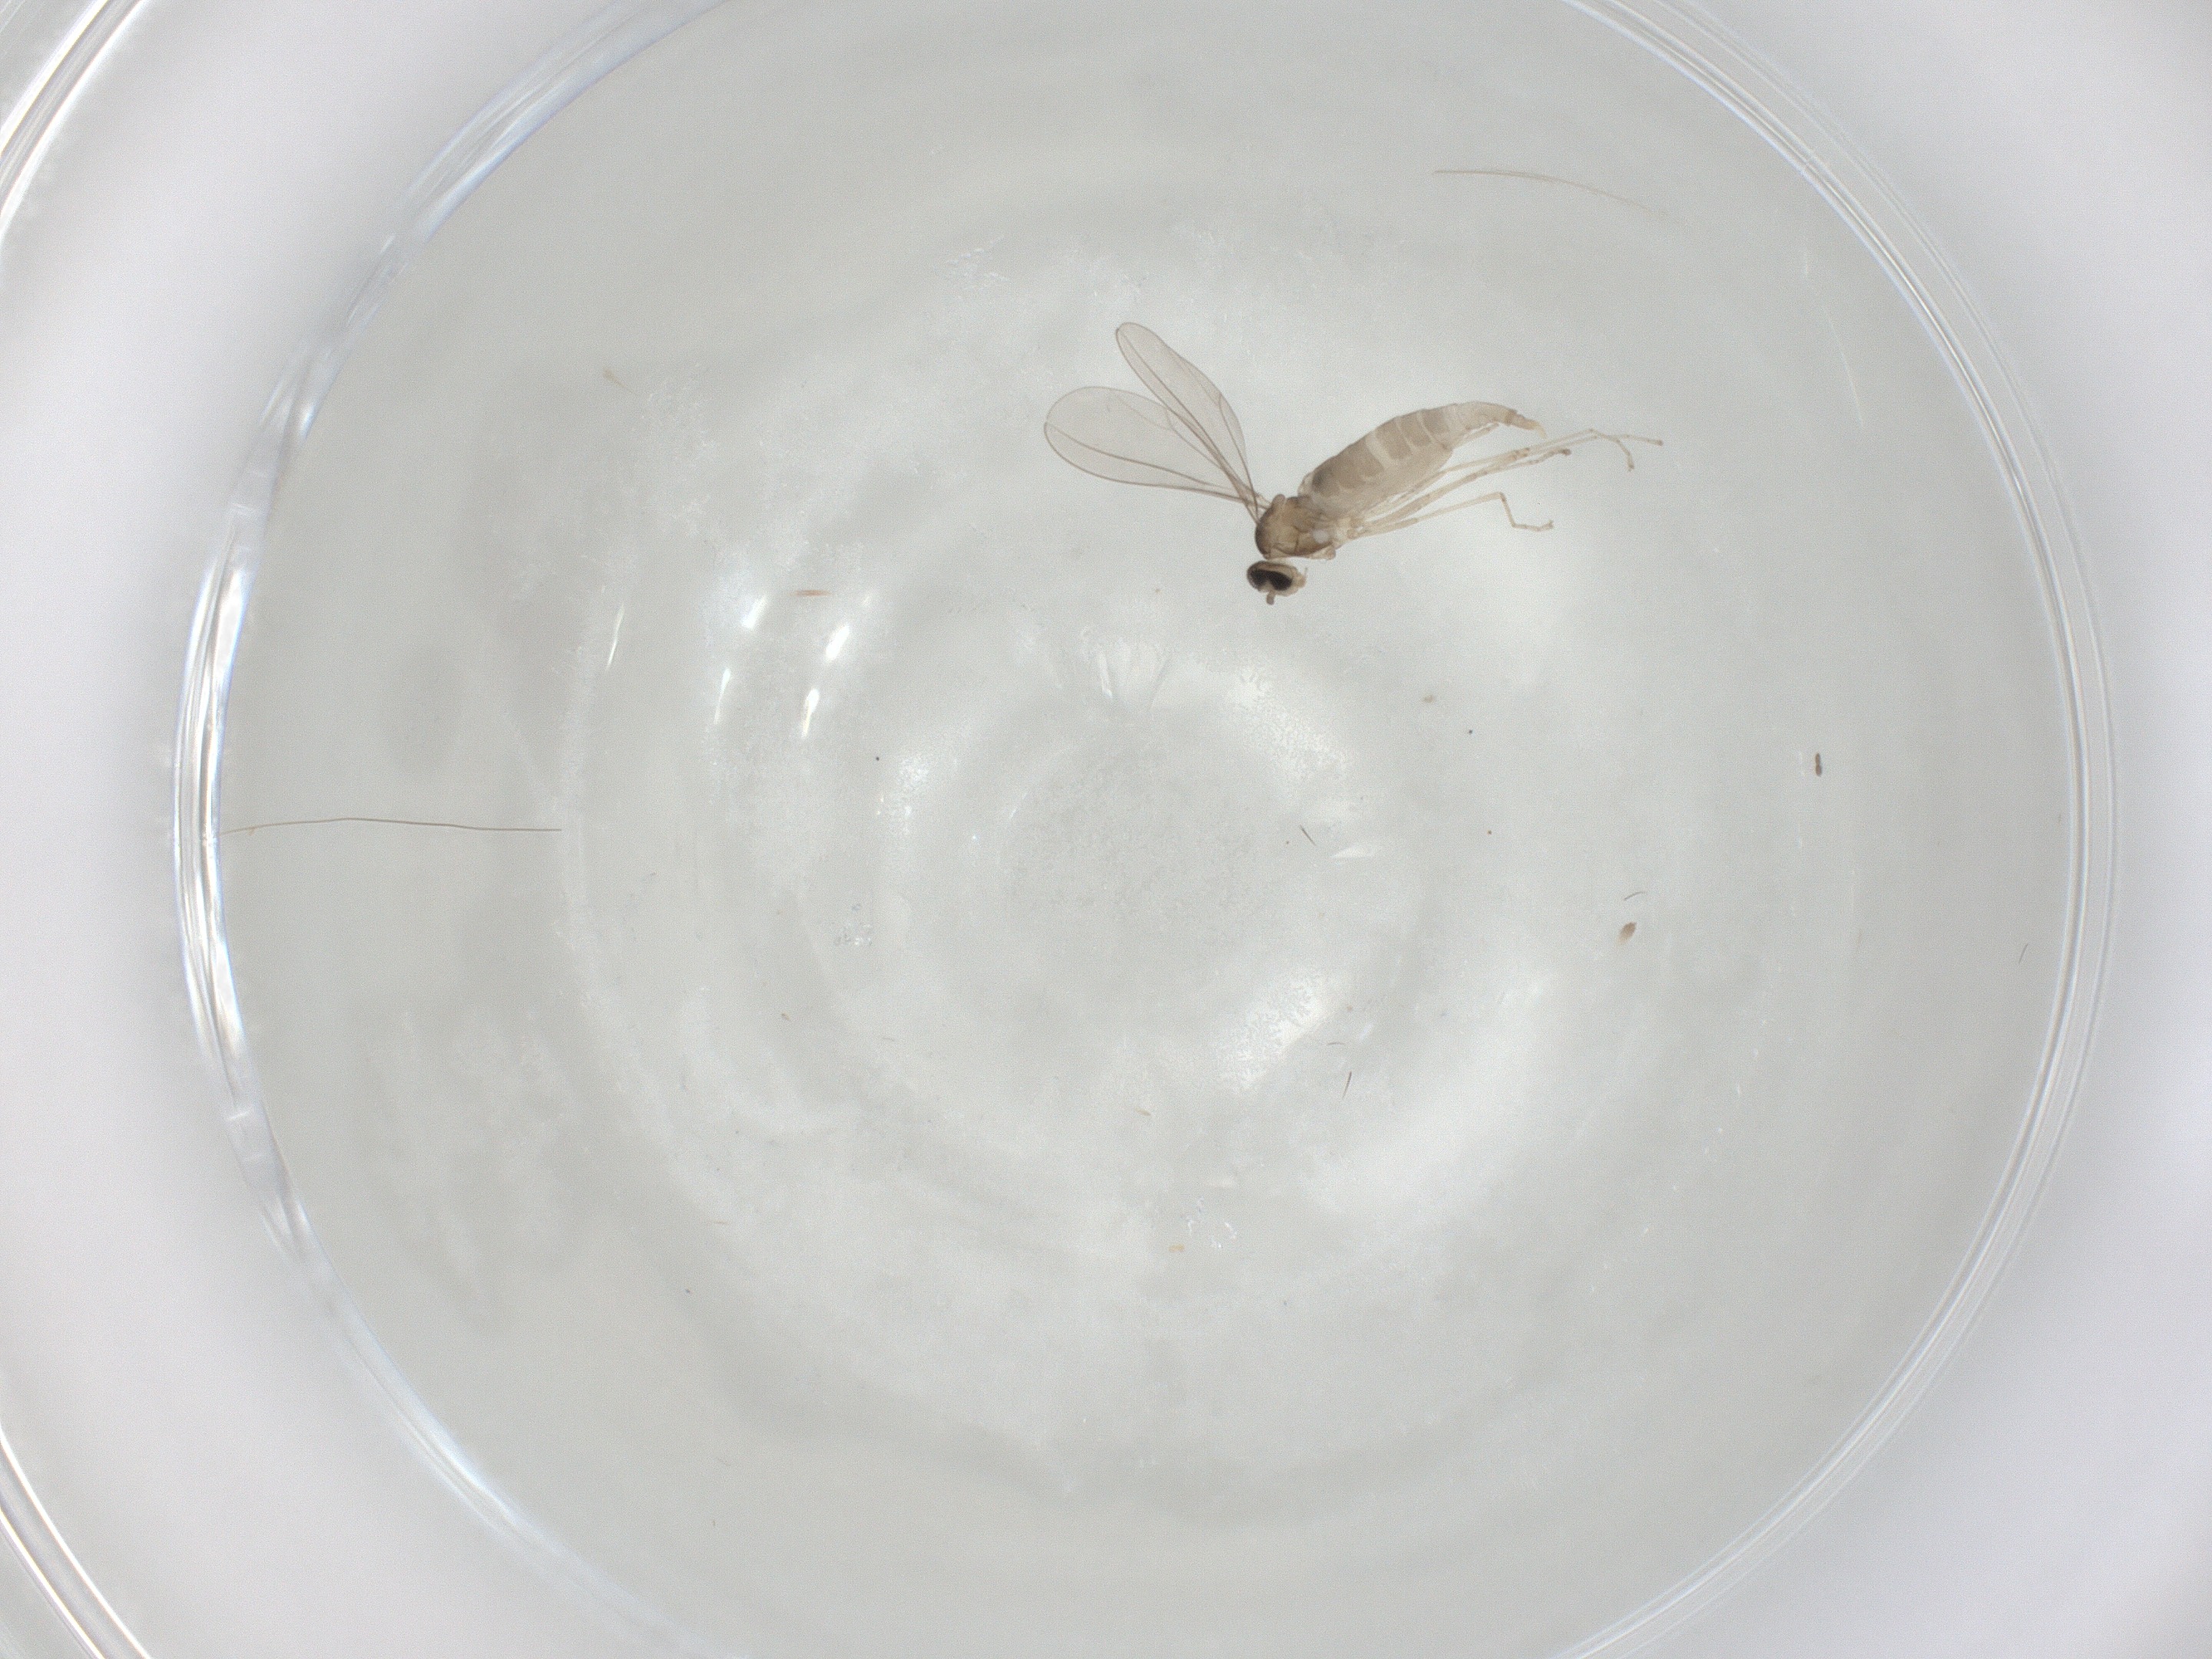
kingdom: Animalia
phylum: Arthropoda
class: Insecta
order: Diptera
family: Cecidomyiidae
